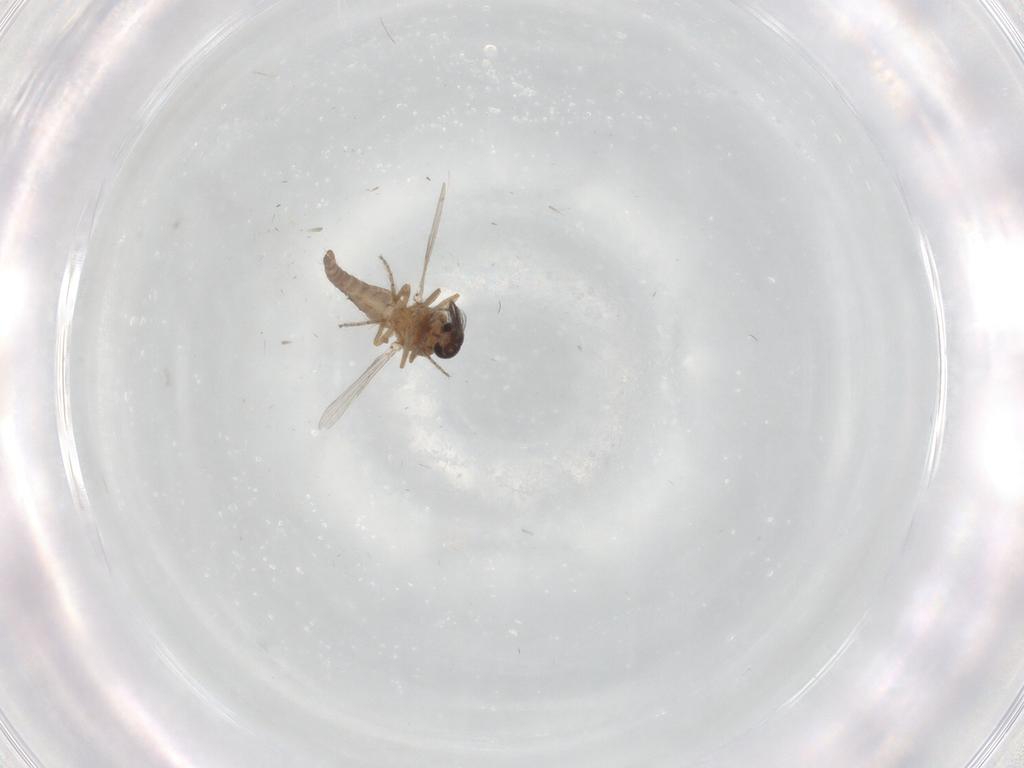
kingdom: Animalia
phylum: Arthropoda
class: Insecta
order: Diptera
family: Ceratopogonidae
